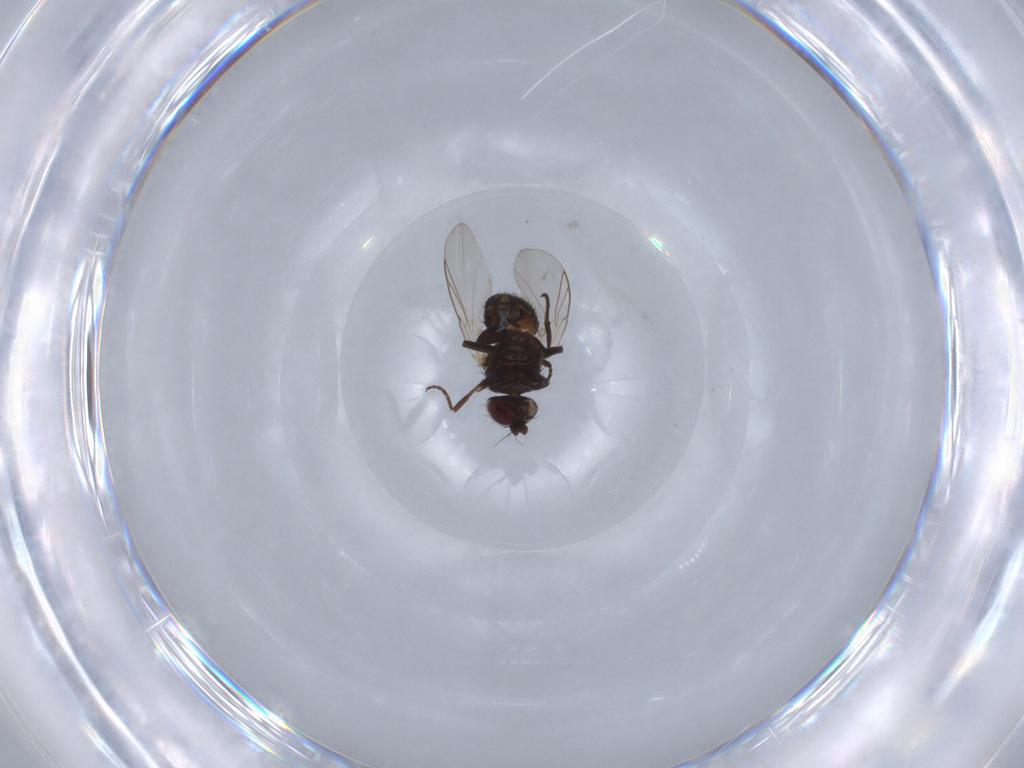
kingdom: Animalia
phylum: Arthropoda
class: Insecta
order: Diptera
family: Agromyzidae
